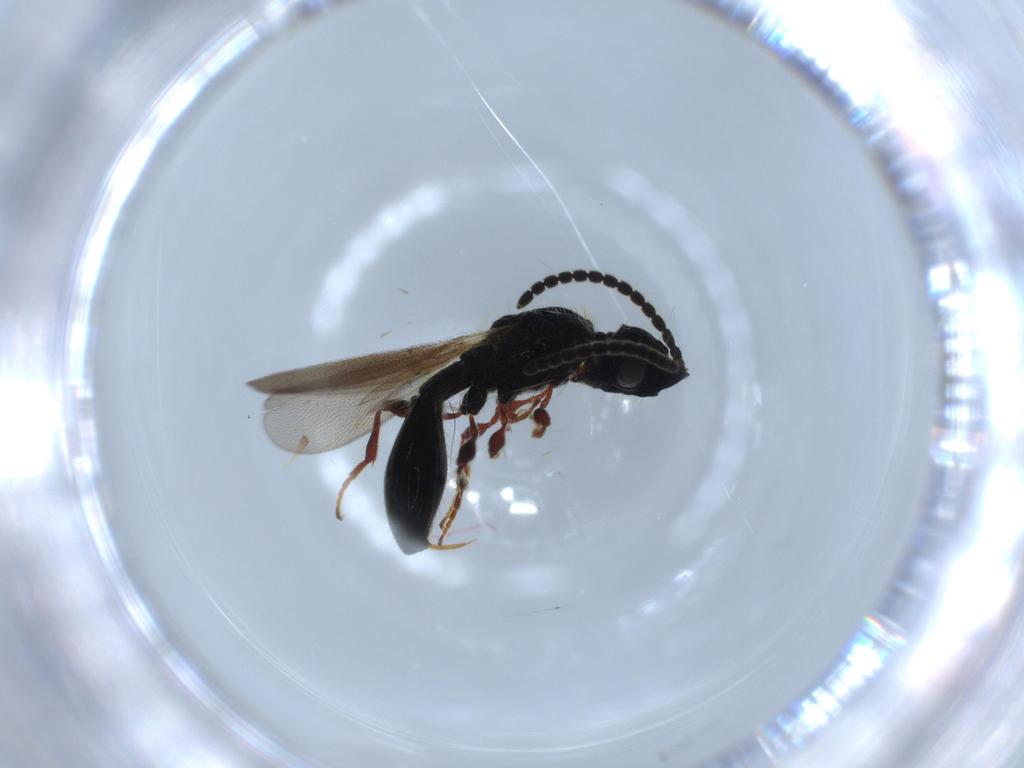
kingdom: Animalia
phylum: Arthropoda
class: Insecta
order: Hymenoptera
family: Diapriidae
